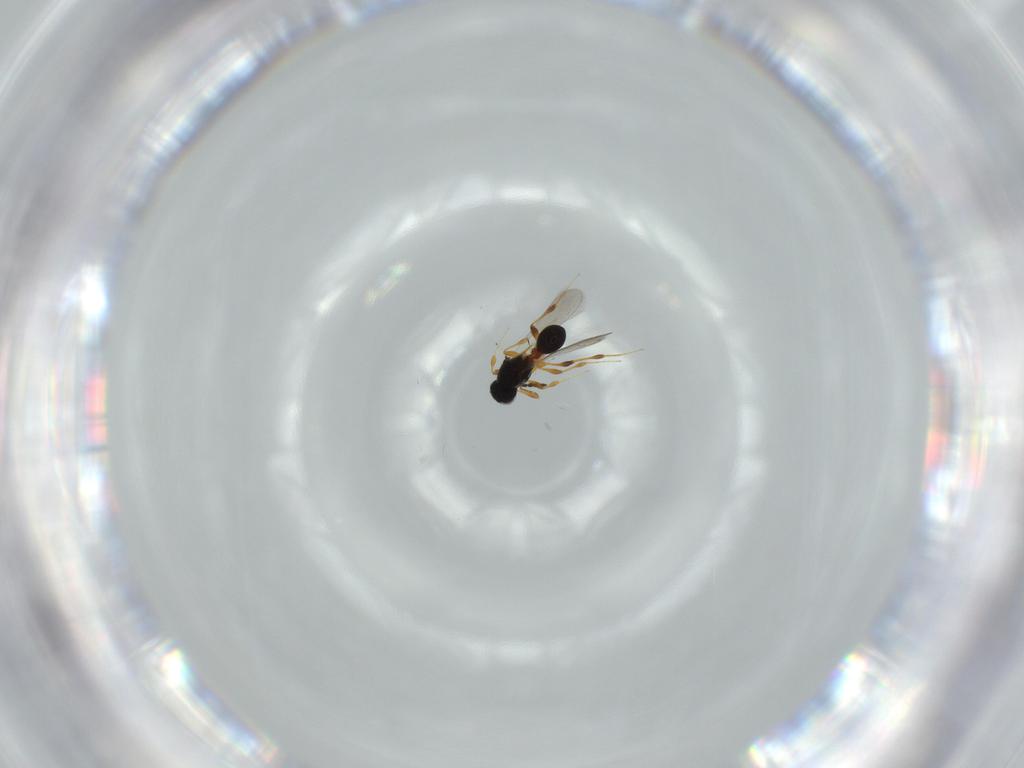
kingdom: Animalia
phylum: Arthropoda
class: Insecta
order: Hymenoptera
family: Platygastridae
